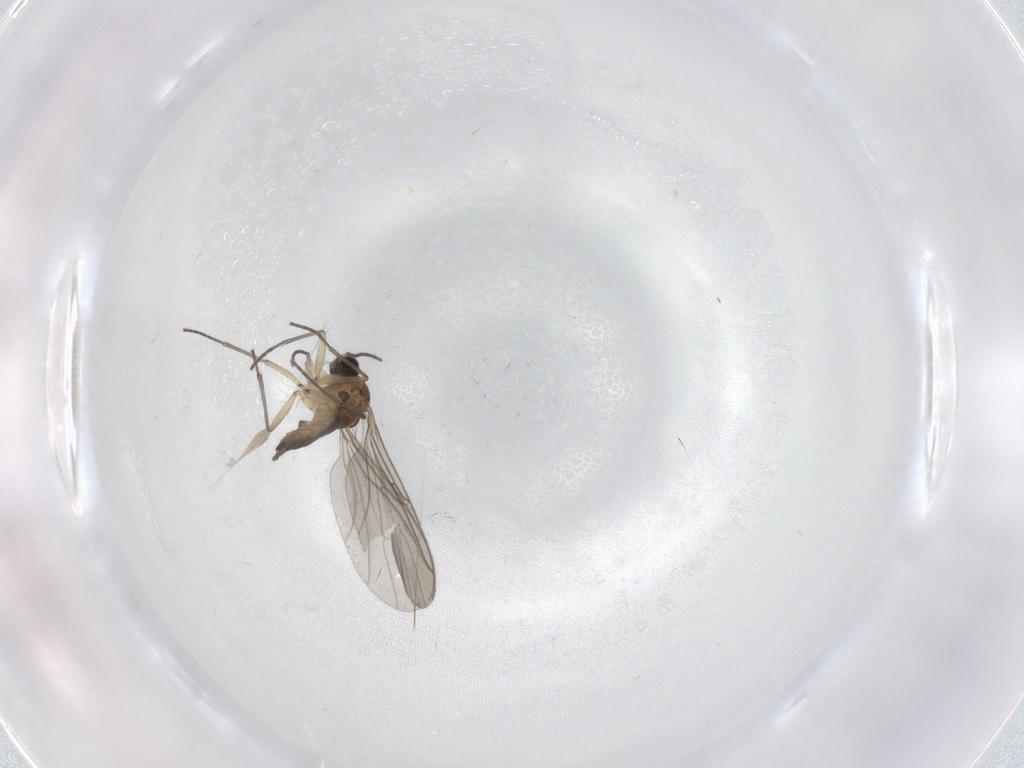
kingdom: Animalia
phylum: Arthropoda
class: Insecta
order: Diptera
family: Sciaridae
